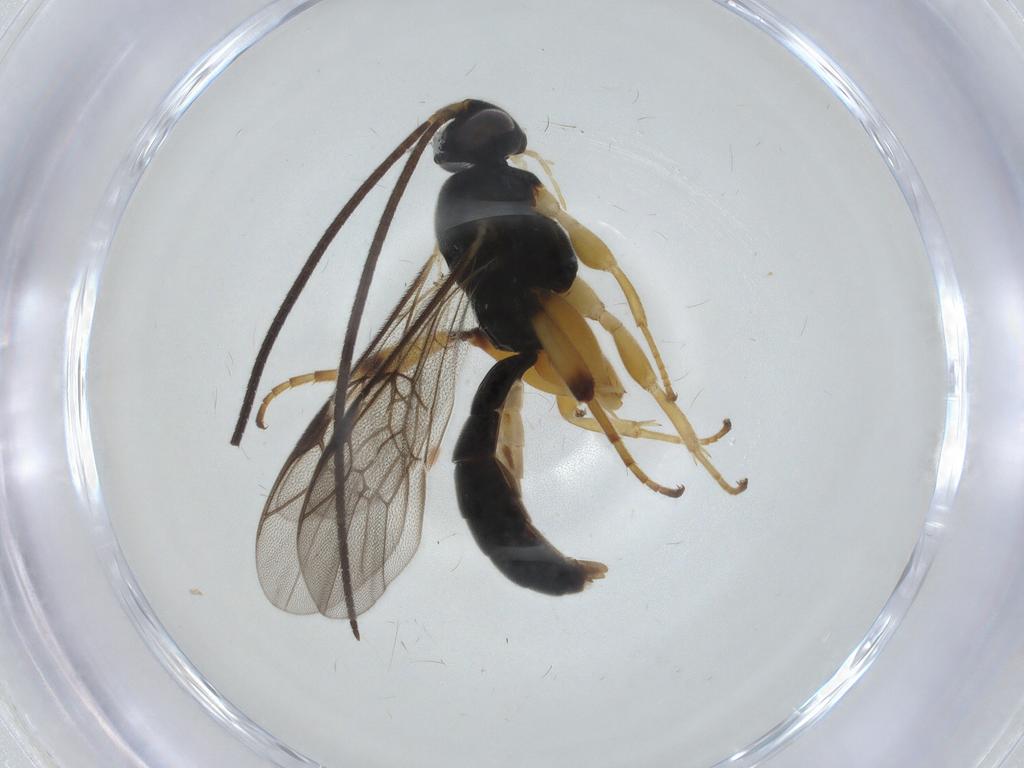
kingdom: Animalia
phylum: Arthropoda
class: Insecta
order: Hymenoptera
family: Ichneumonidae
